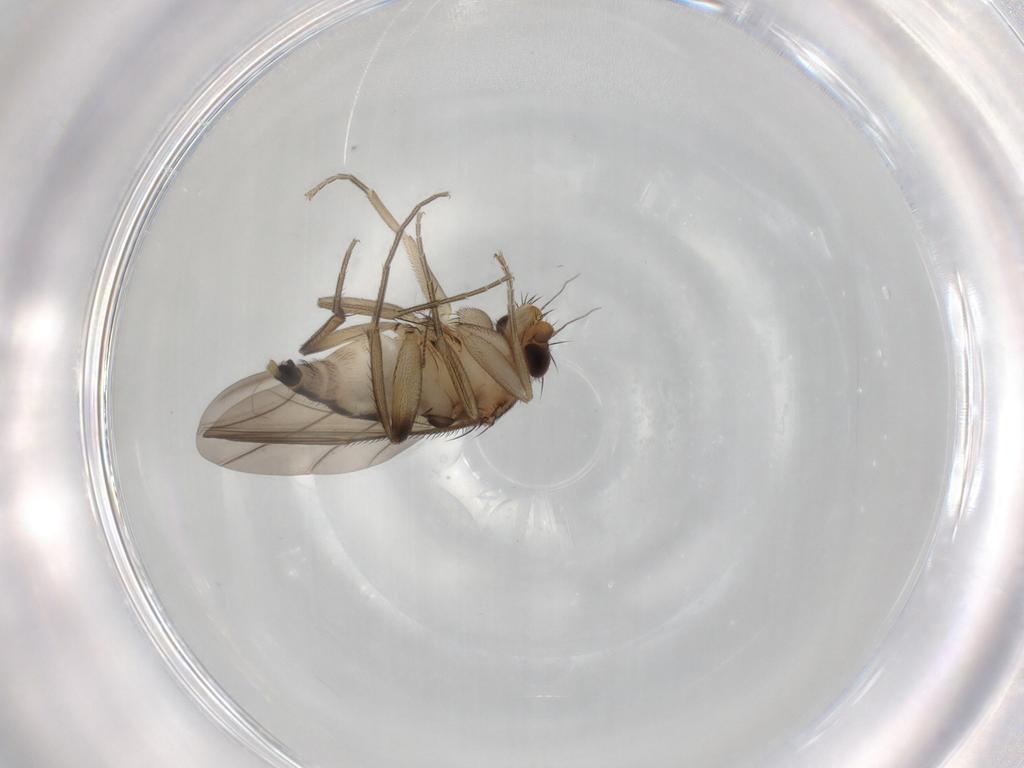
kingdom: Animalia
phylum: Arthropoda
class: Insecta
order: Diptera
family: Phoridae
